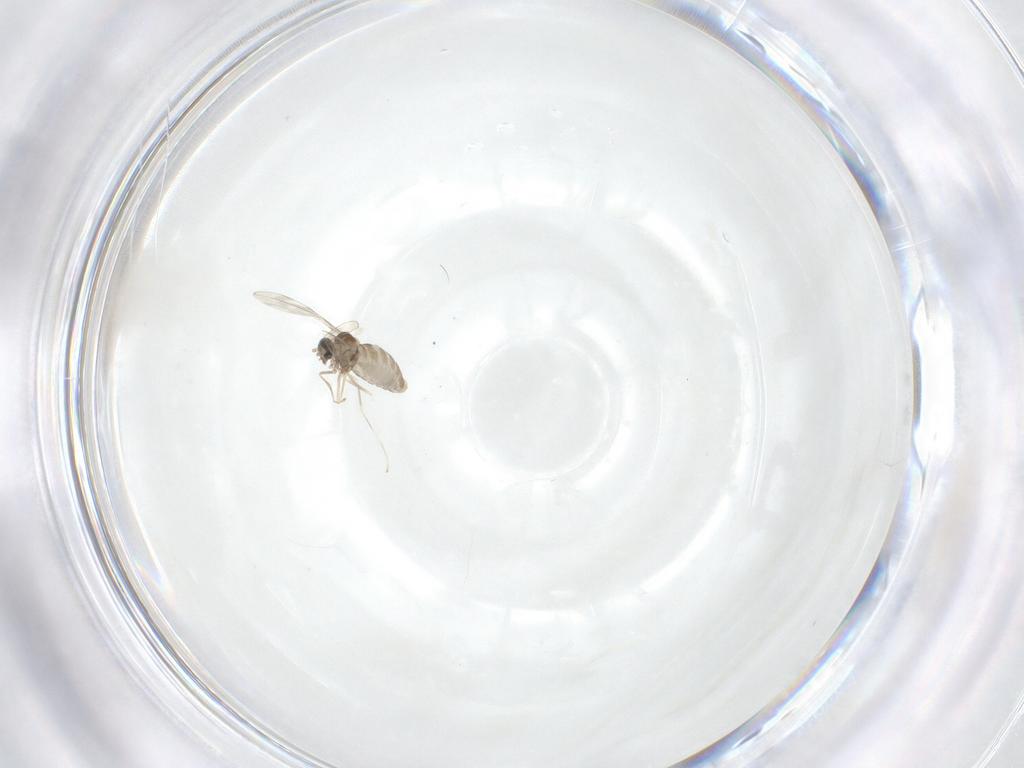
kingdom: Animalia
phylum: Arthropoda
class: Insecta
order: Diptera
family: Cecidomyiidae
